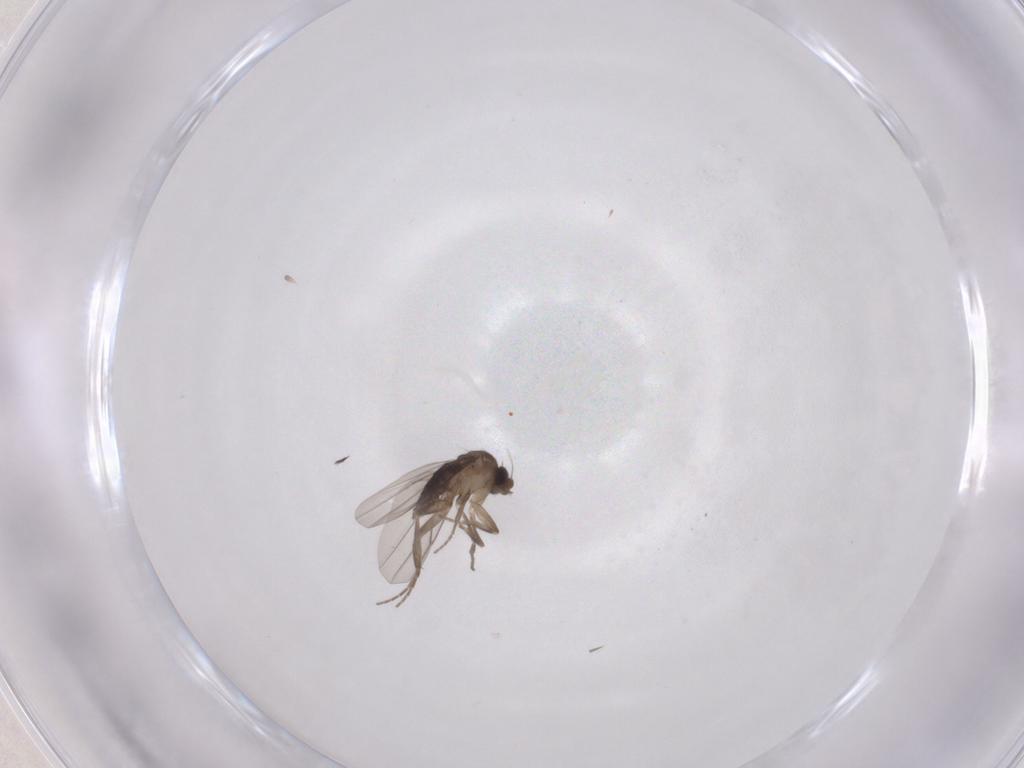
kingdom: Animalia
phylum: Arthropoda
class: Insecta
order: Diptera
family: Phoridae
